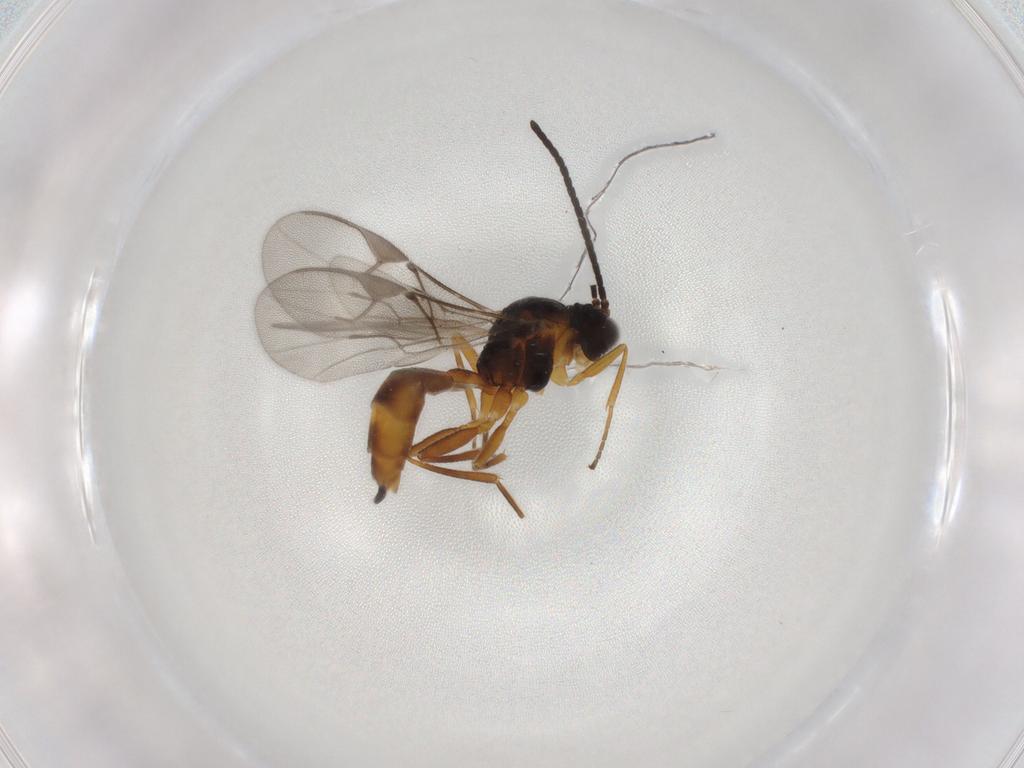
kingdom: Animalia
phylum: Arthropoda
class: Insecta
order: Hymenoptera
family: Braconidae
